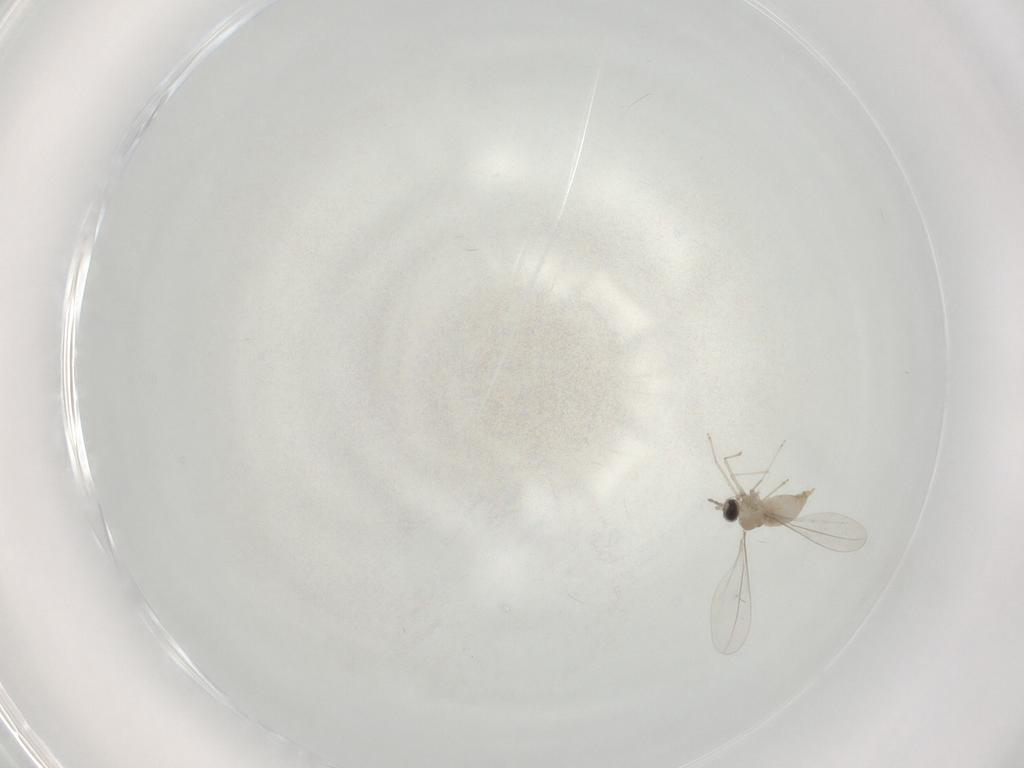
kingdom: Animalia
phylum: Arthropoda
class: Insecta
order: Diptera
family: Cecidomyiidae
